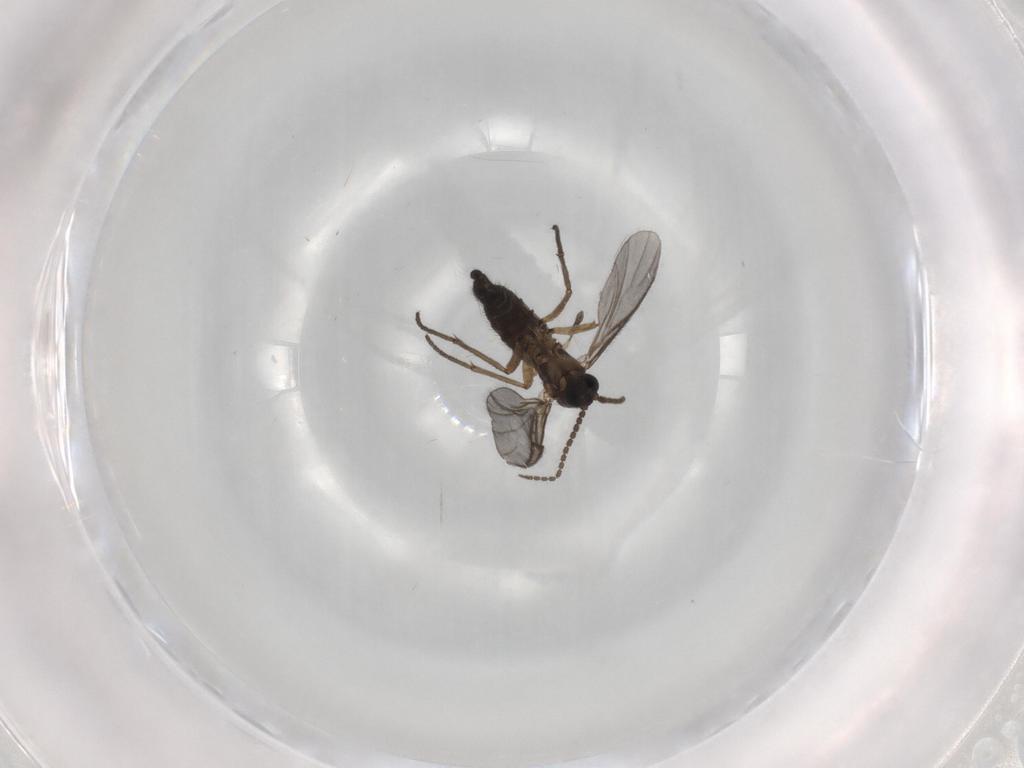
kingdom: Animalia
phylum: Arthropoda
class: Insecta
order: Diptera
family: Sciaridae
